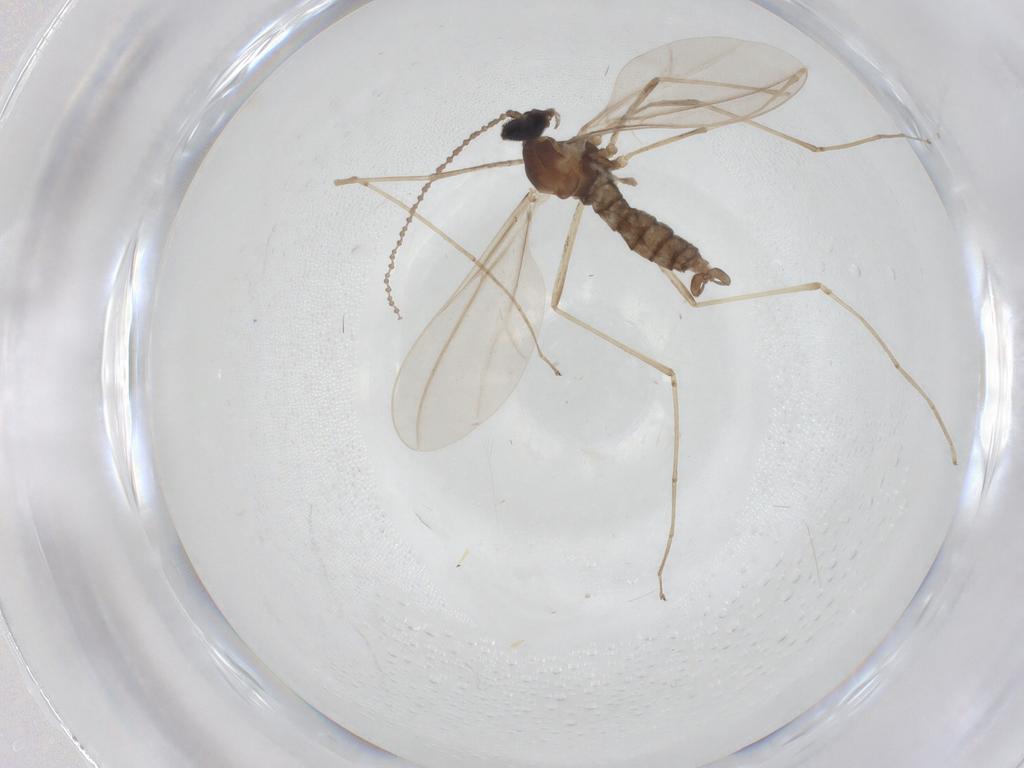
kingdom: Animalia
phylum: Arthropoda
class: Insecta
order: Diptera
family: Cecidomyiidae
